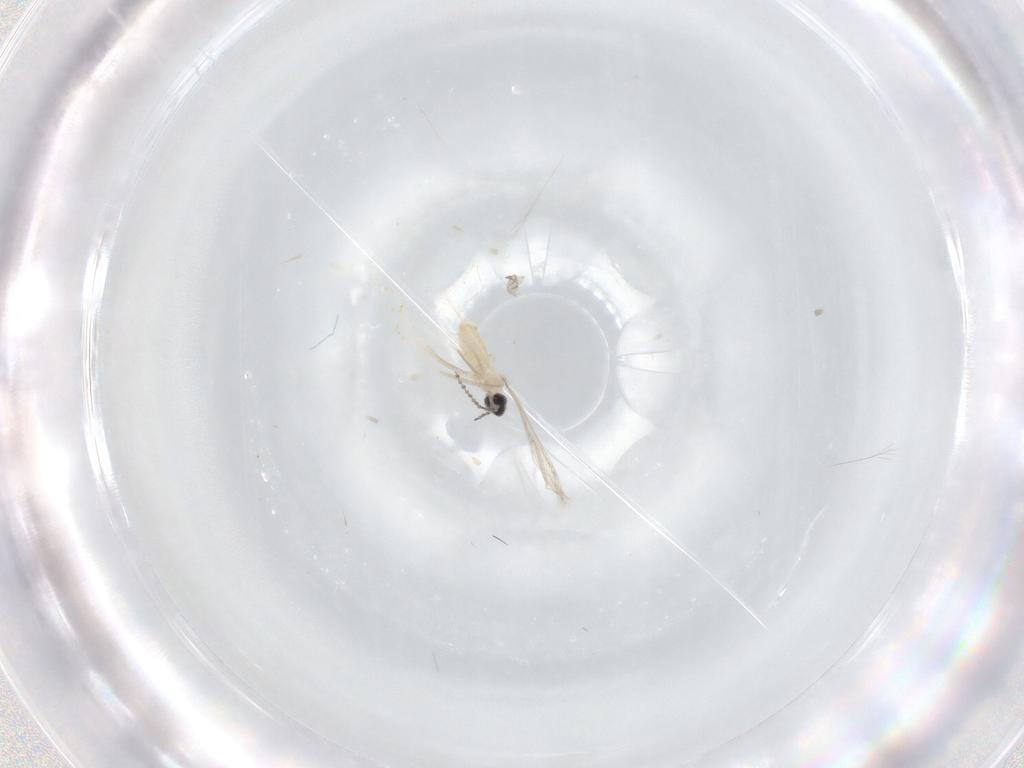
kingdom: Animalia
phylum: Arthropoda
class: Insecta
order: Diptera
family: Cecidomyiidae
